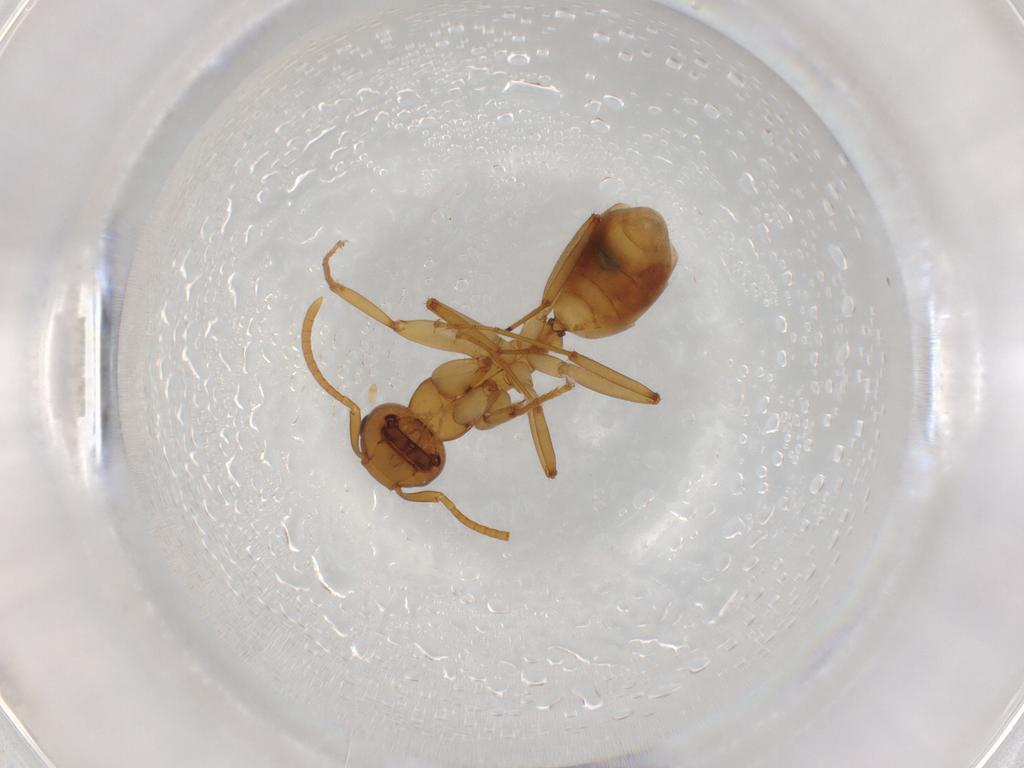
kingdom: Animalia
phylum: Arthropoda
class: Insecta
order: Hymenoptera
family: Formicidae
